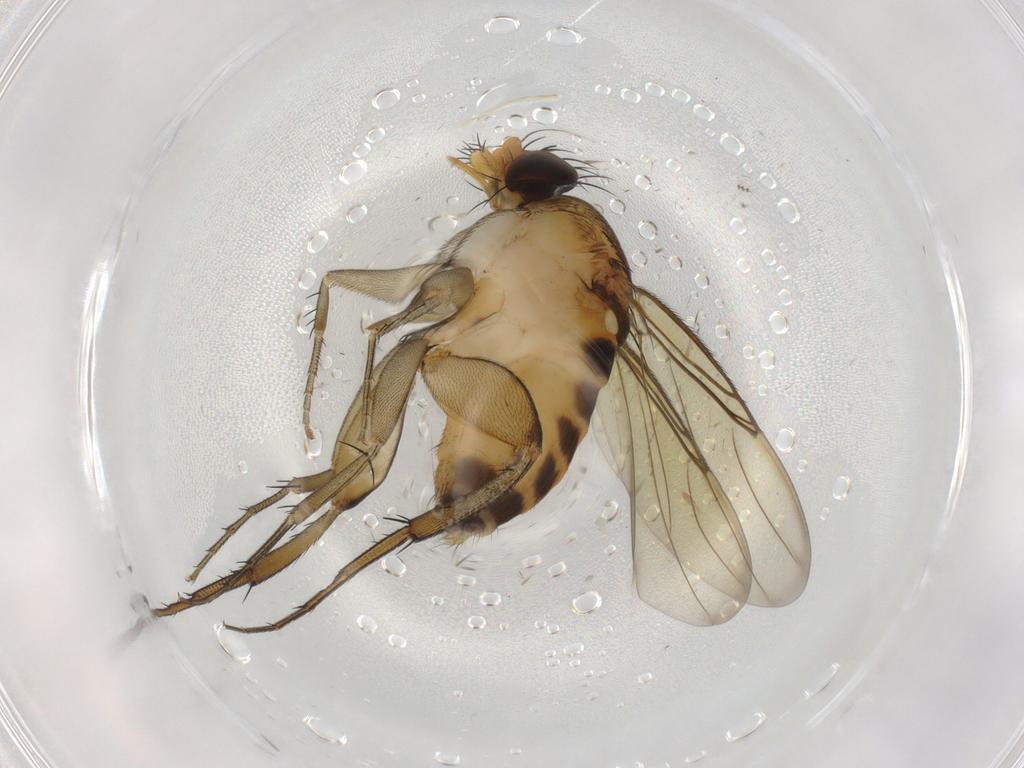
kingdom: Animalia
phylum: Arthropoda
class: Insecta
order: Diptera
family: Cecidomyiidae
